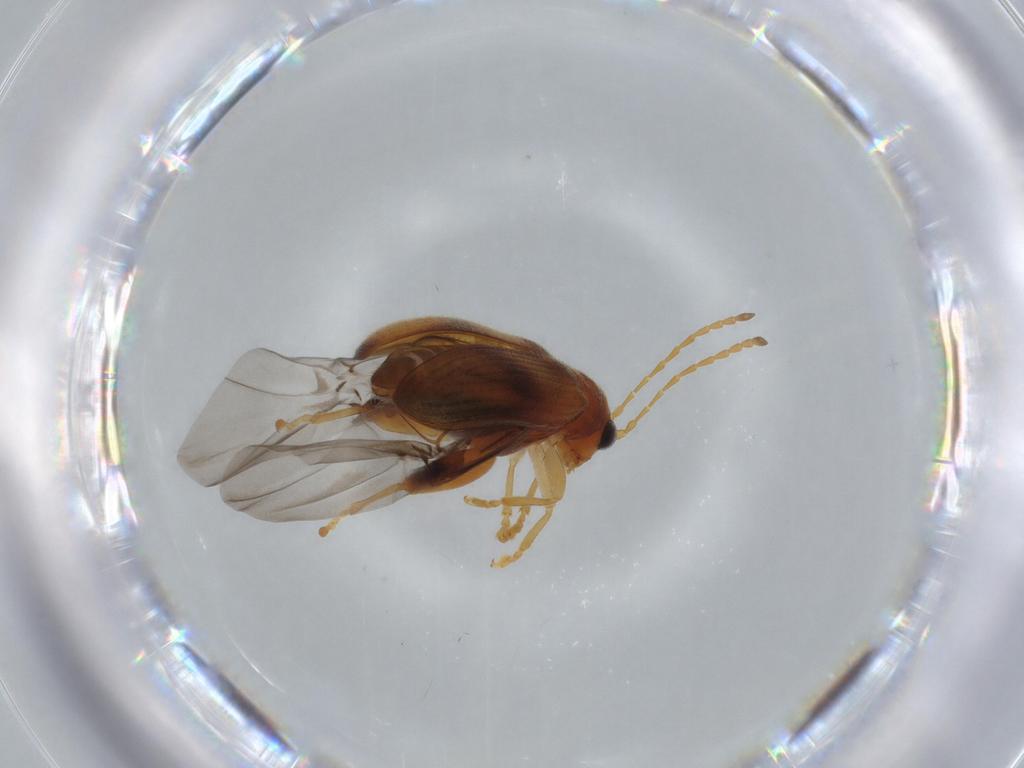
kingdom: Animalia
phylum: Arthropoda
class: Insecta
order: Coleoptera
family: Chrysomelidae
